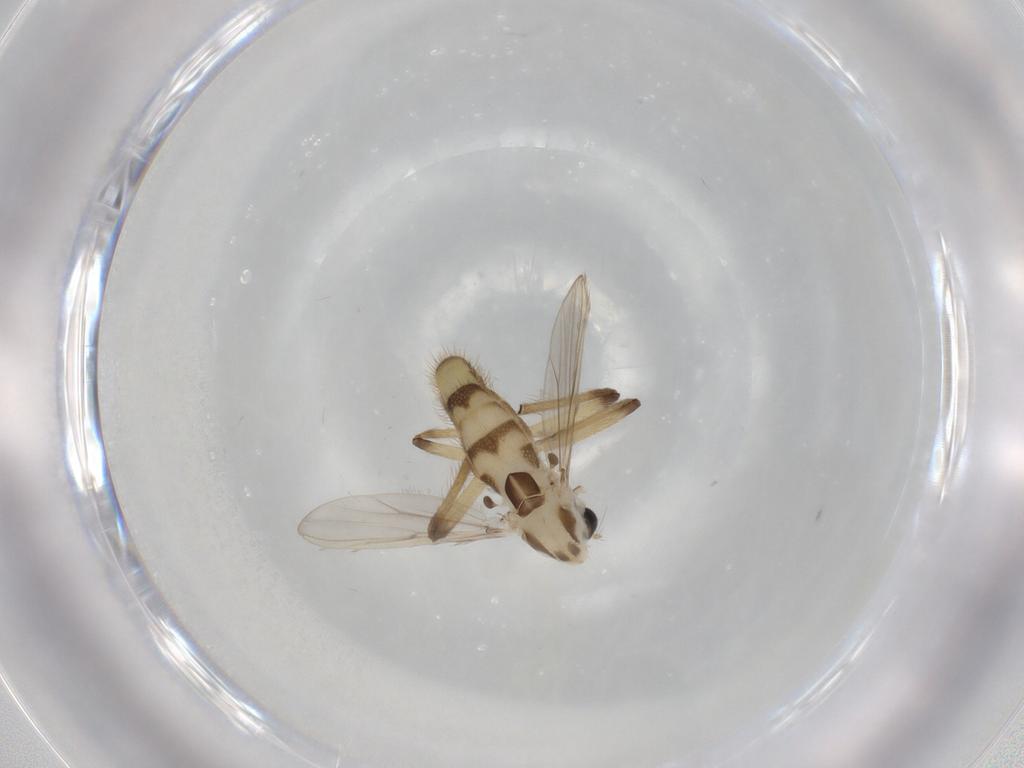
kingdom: Animalia
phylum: Arthropoda
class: Insecta
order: Diptera
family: Chironomidae
